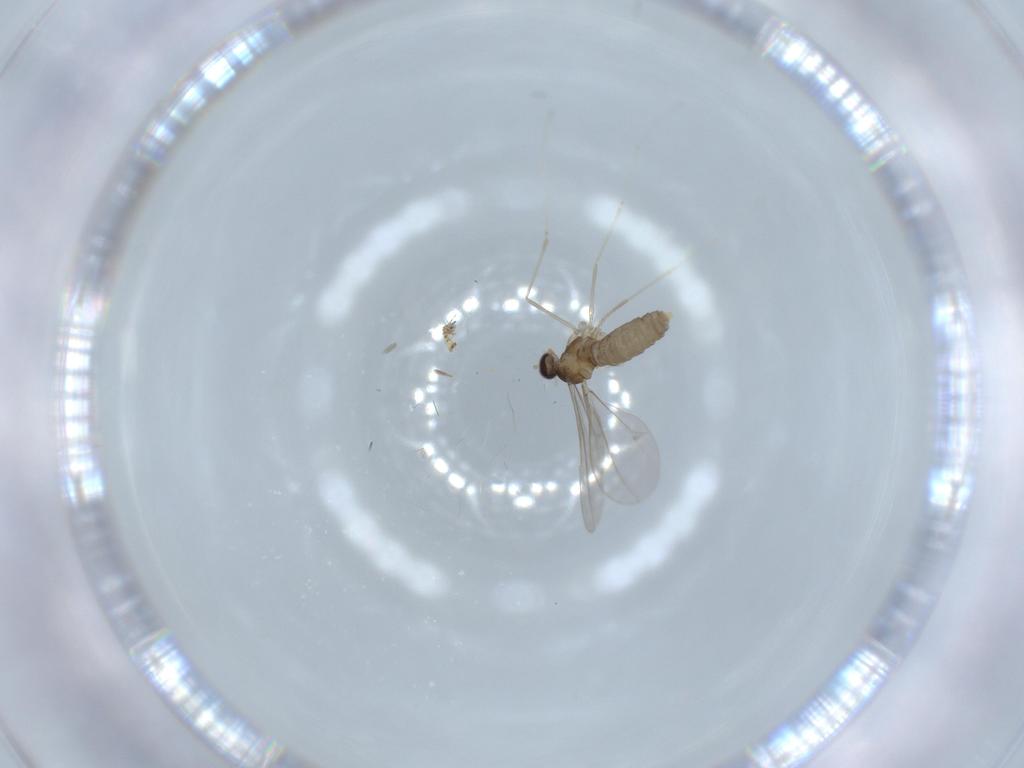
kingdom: Animalia
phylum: Arthropoda
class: Insecta
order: Diptera
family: Cecidomyiidae
